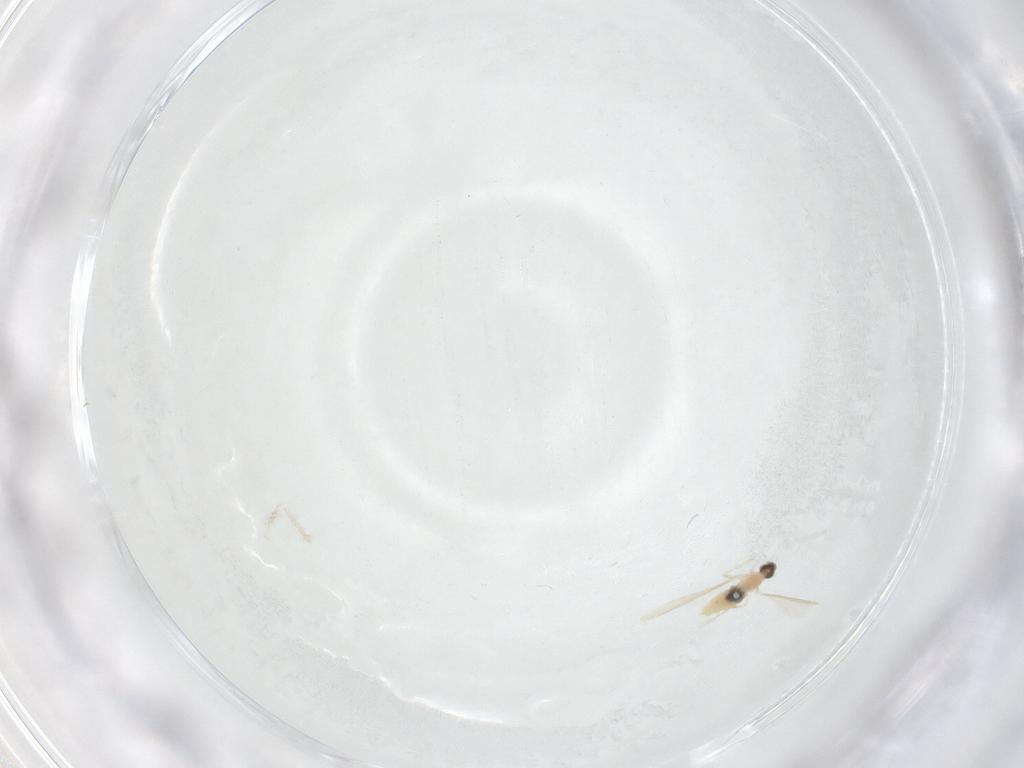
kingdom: Animalia
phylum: Arthropoda
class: Insecta
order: Diptera
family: Cecidomyiidae
